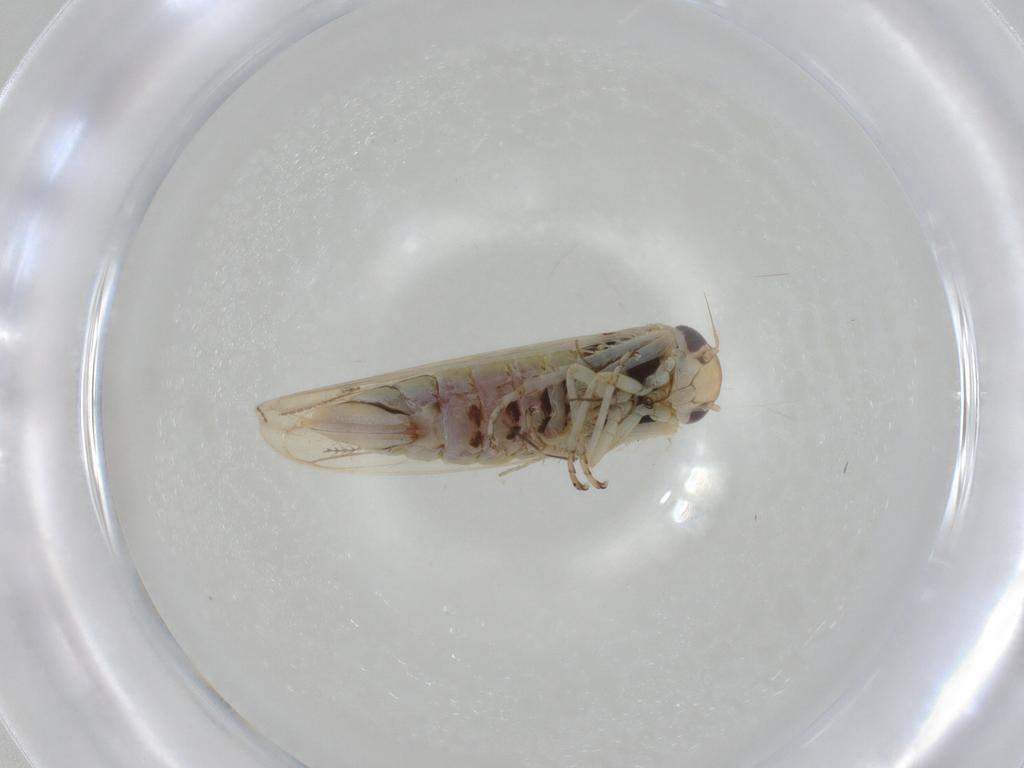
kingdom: Animalia
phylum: Arthropoda
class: Insecta
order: Hemiptera
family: Cicadellidae
